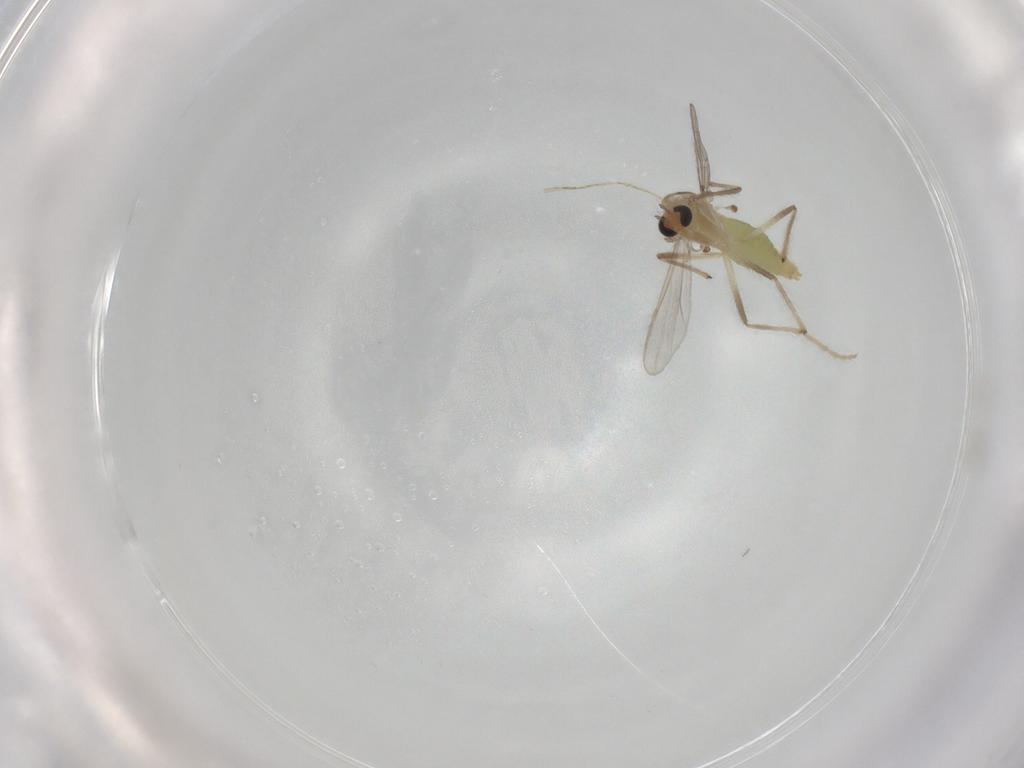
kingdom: Animalia
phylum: Arthropoda
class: Insecta
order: Diptera
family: Chironomidae
